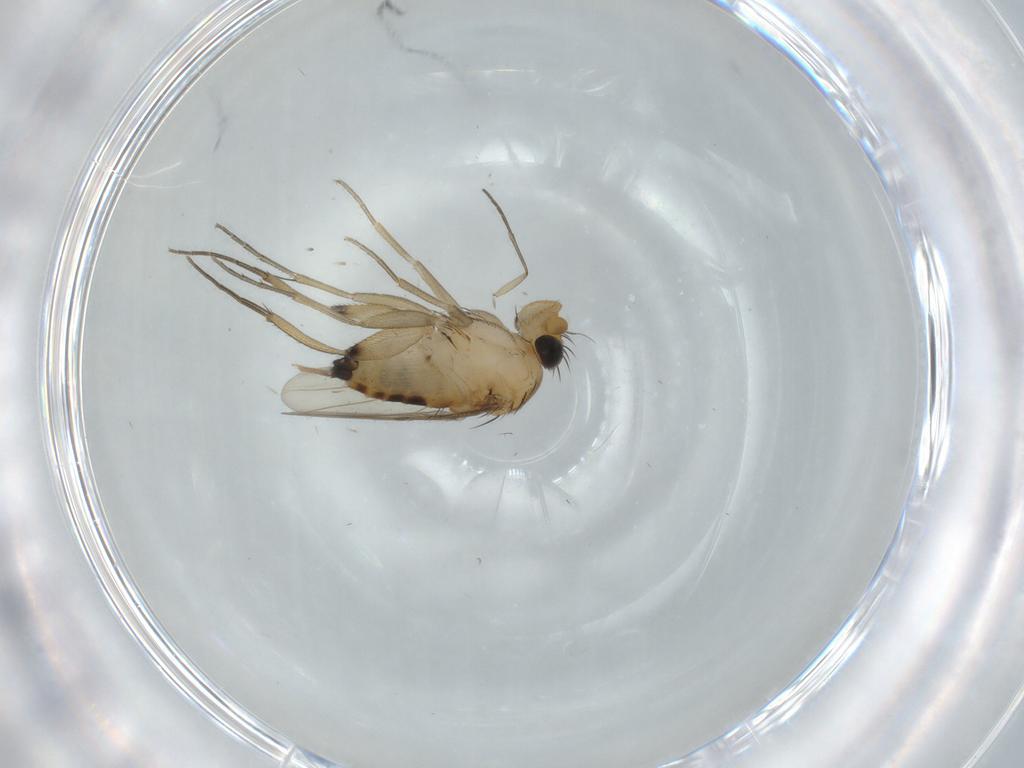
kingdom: Animalia
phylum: Arthropoda
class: Insecta
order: Diptera
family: Phoridae
